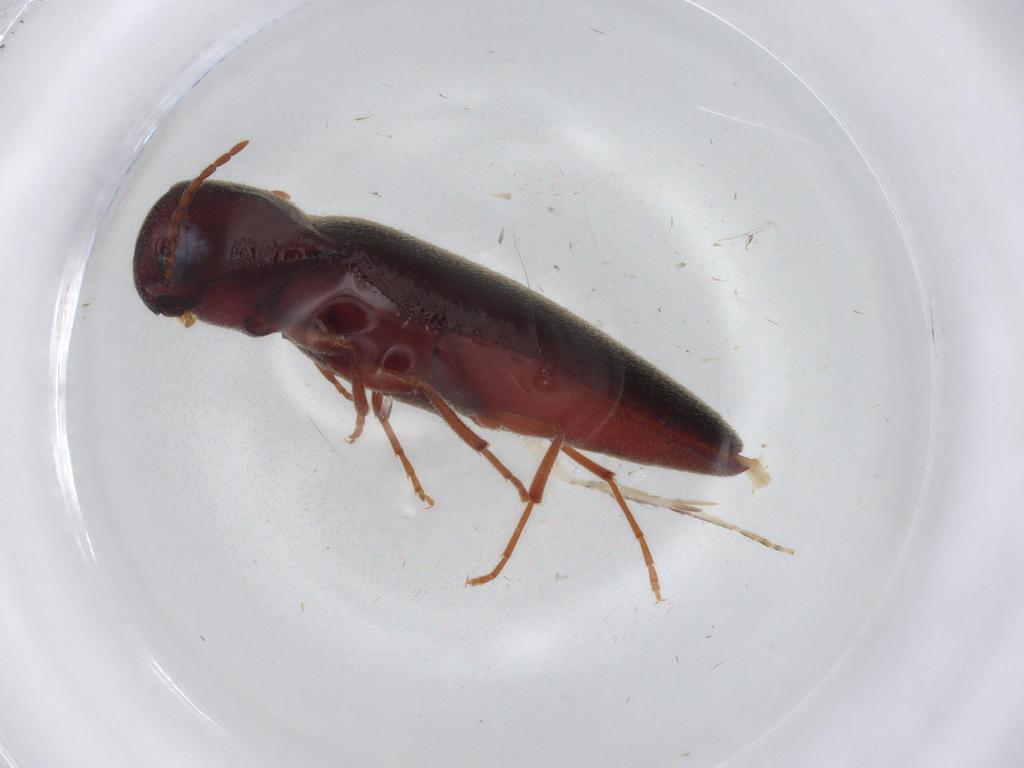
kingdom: Animalia
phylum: Arthropoda
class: Insecta
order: Coleoptera
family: Eucnemidae
